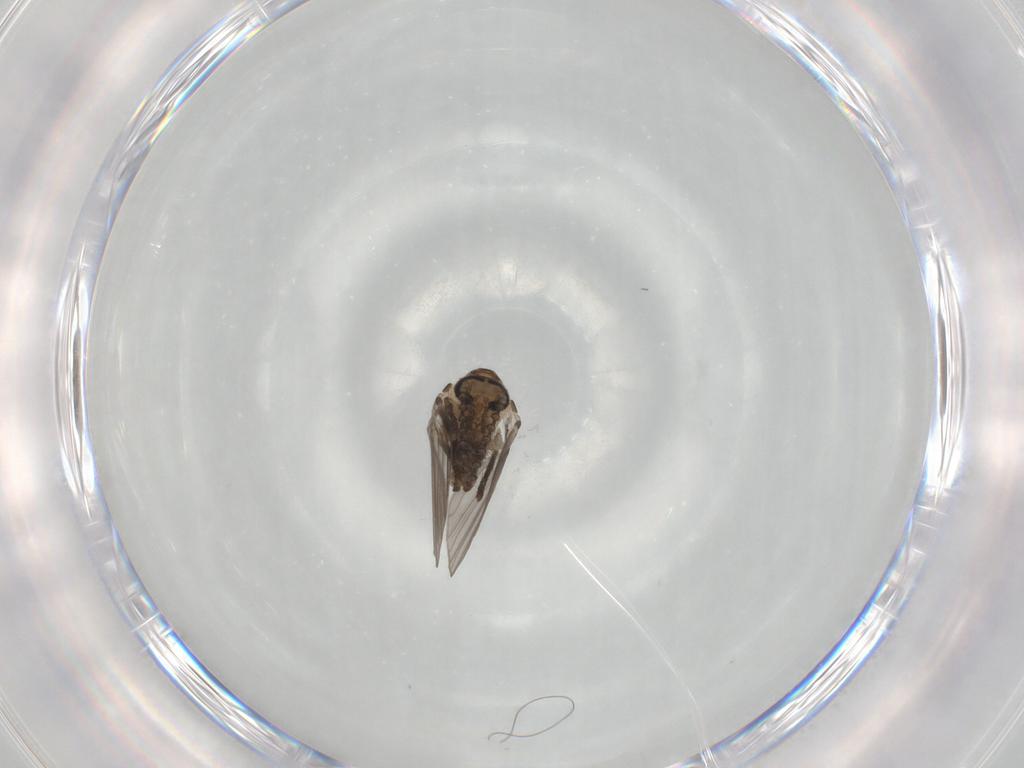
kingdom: Animalia
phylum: Arthropoda
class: Insecta
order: Diptera
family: Psychodidae
